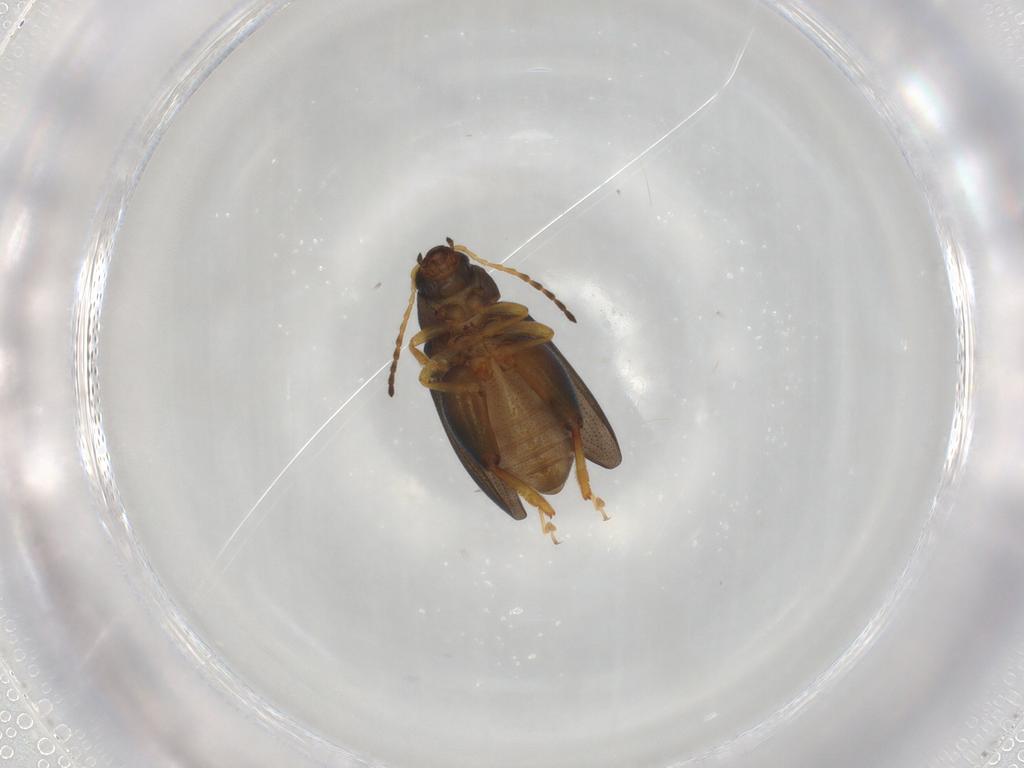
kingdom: Animalia
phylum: Arthropoda
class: Insecta
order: Coleoptera
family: Chrysomelidae
